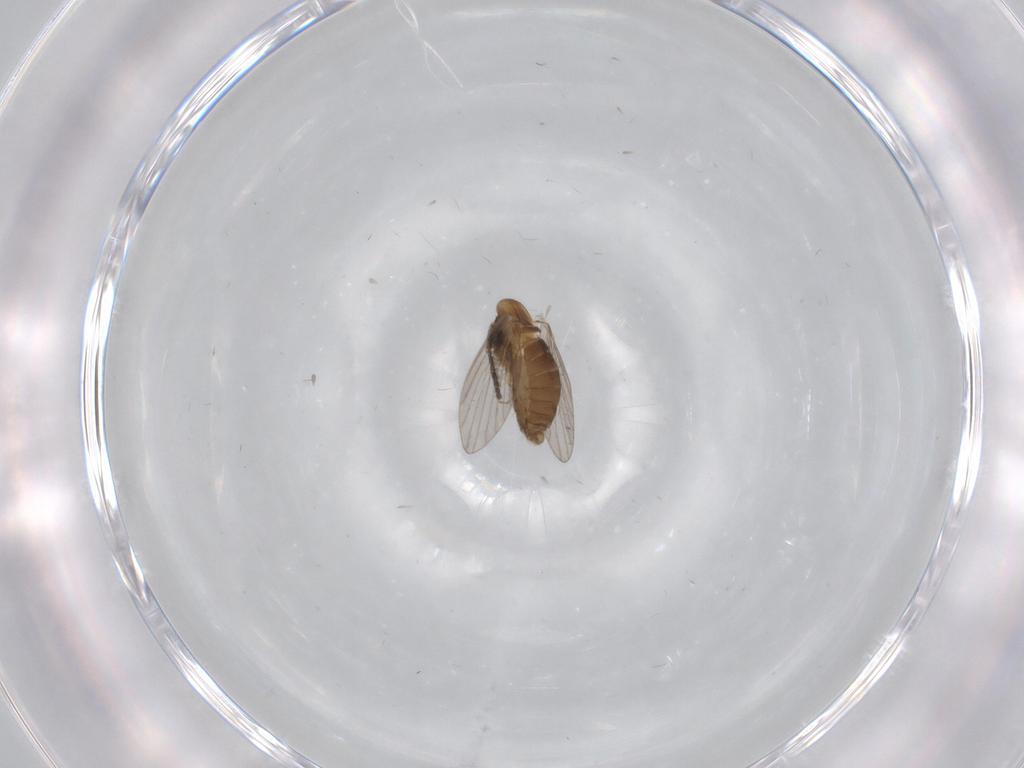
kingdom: Animalia
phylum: Arthropoda
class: Insecta
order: Diptera
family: Psychodidae
